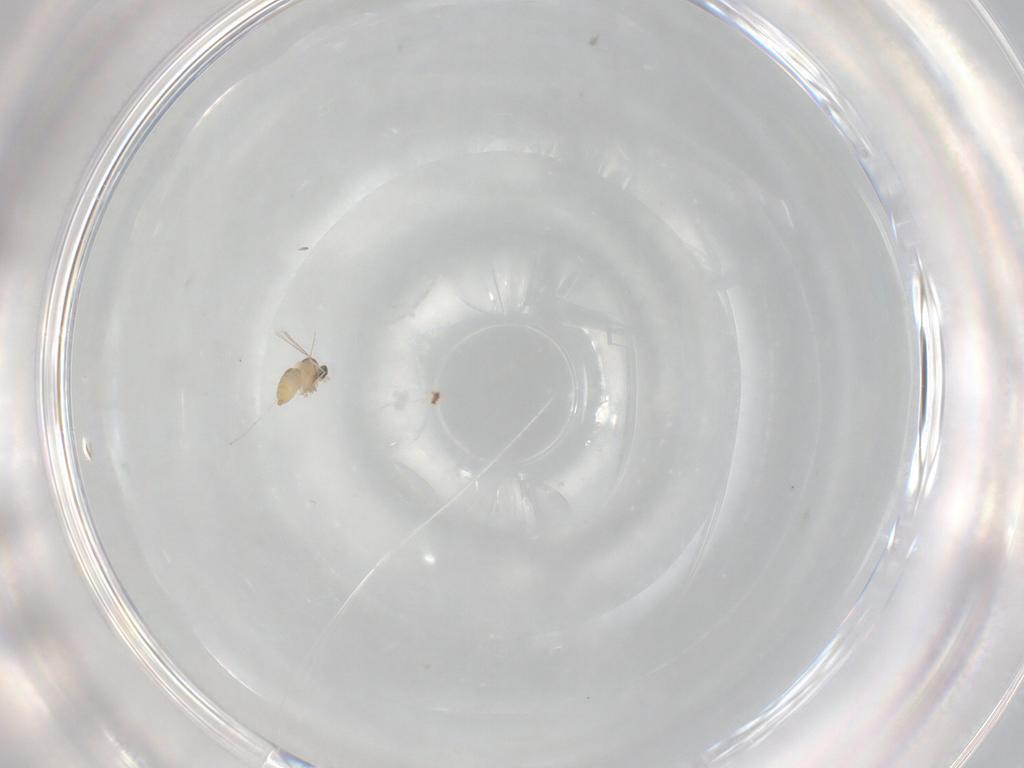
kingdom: Animalia
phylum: Arthropoda
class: Insecta
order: Diptera
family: Cecidomyiidae
